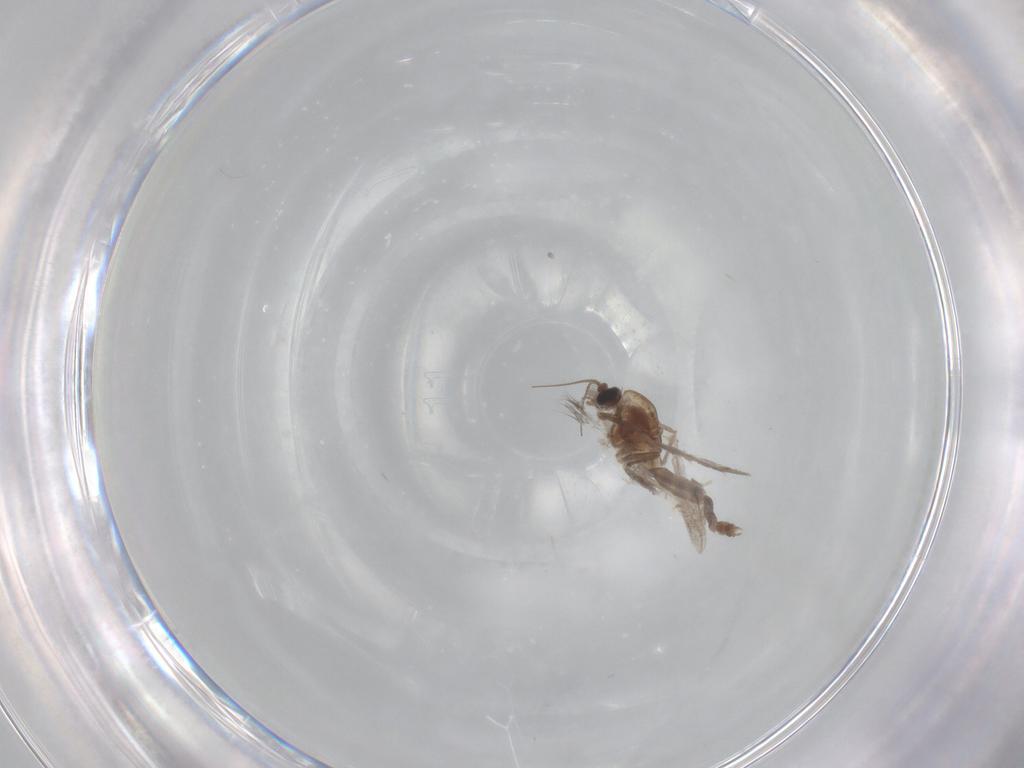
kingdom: Animalia
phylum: Arthropoda
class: Insecta
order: Diptera
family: Chironomidae
